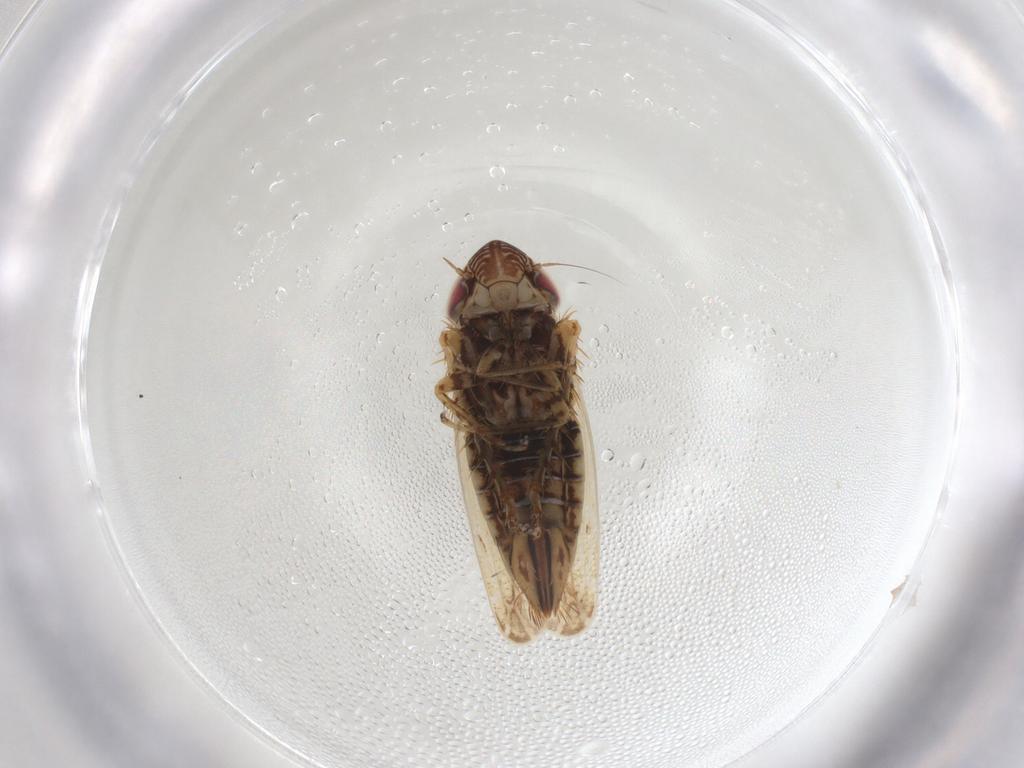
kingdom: Animalia
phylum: Arthropoda
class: Insecta
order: Hemiptera
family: Cicadellidae
